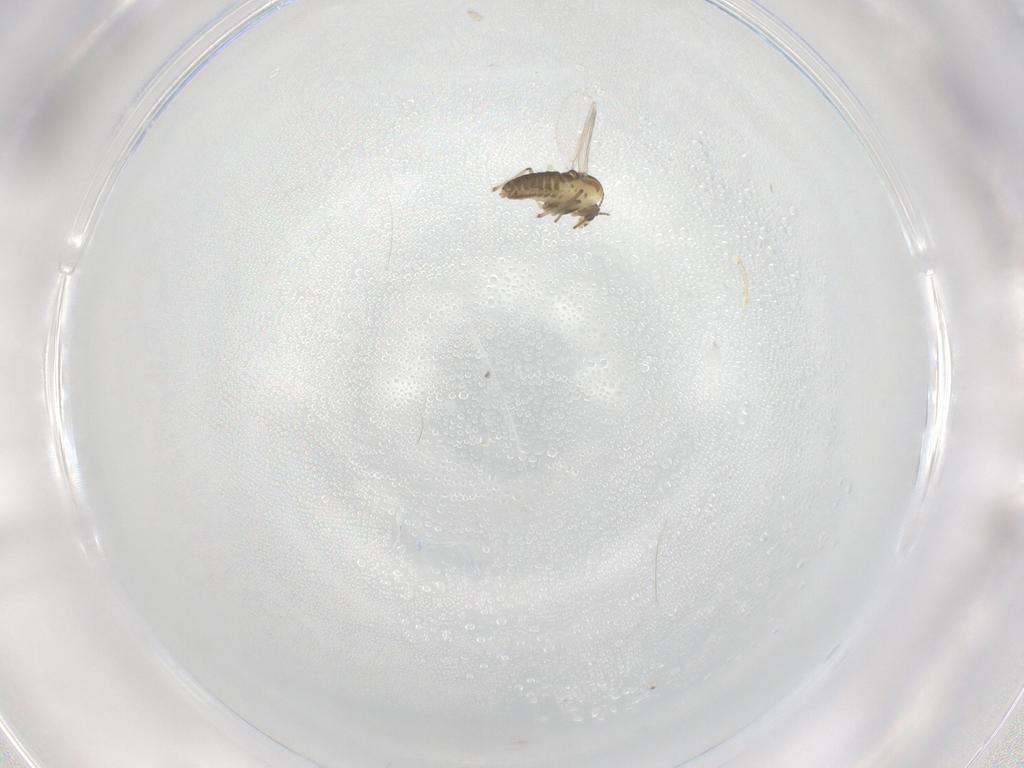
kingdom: Animalia
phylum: Arthropoda
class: Insecta
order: Diptera
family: Chironomidae
